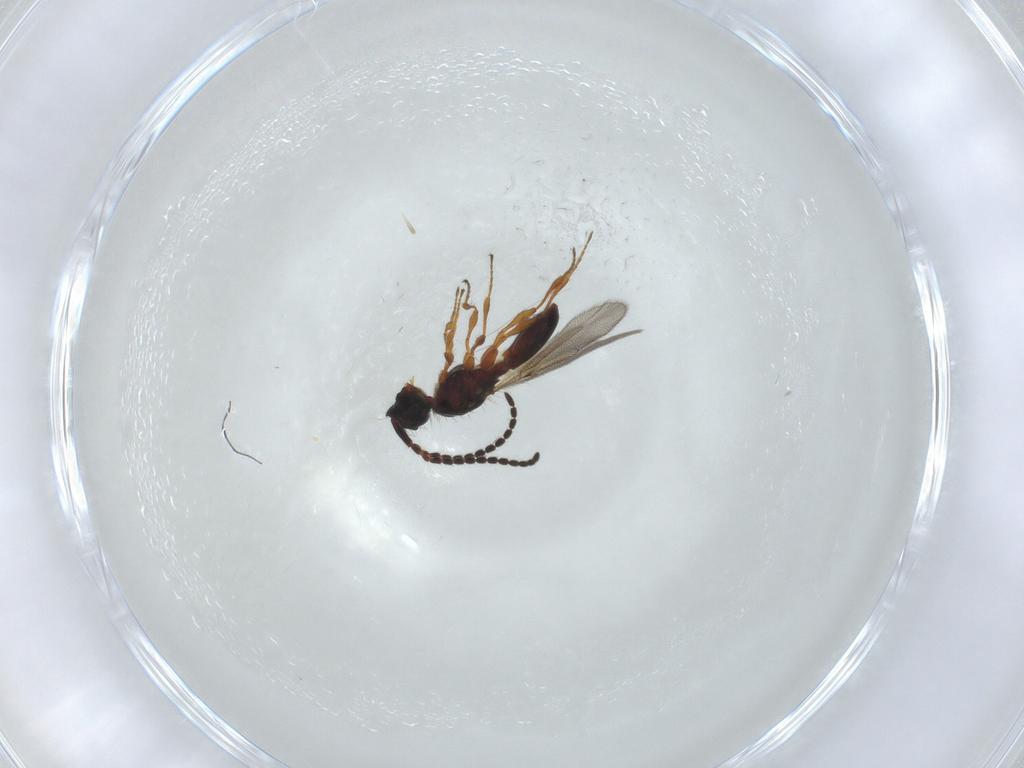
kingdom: Animalia
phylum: Arthropoda
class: Insecta
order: Hymenoptera
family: Diapriidae
